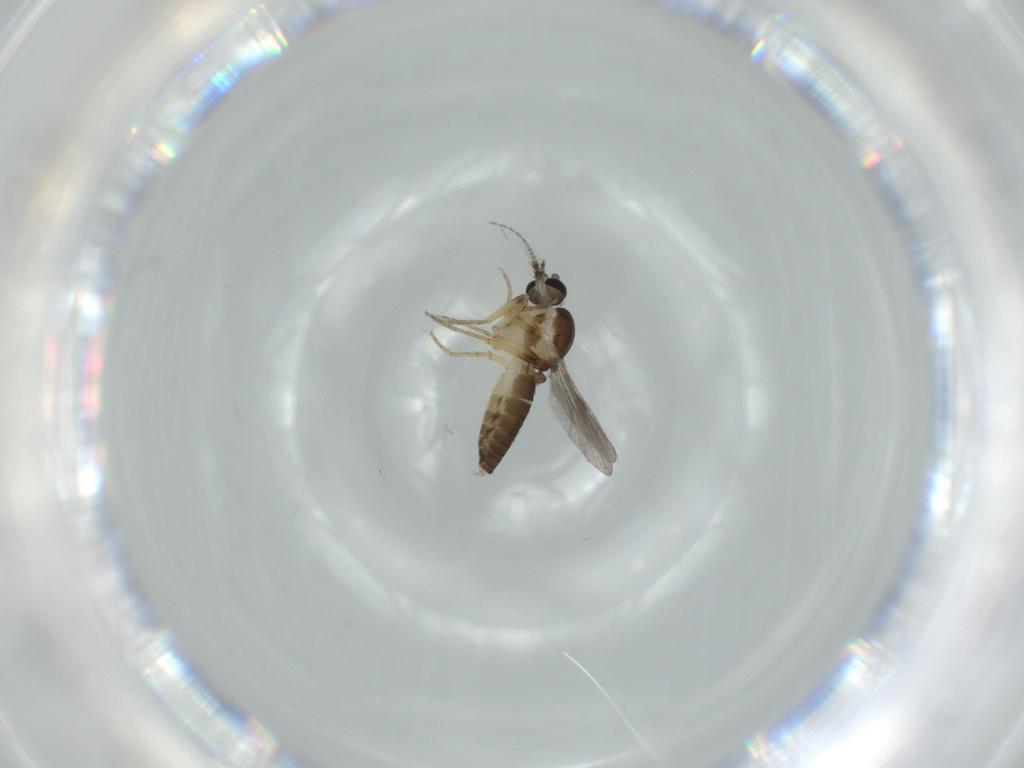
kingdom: Animalia
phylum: Arthropoda
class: Insecta
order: Diptera
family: Ceratopogonidae
